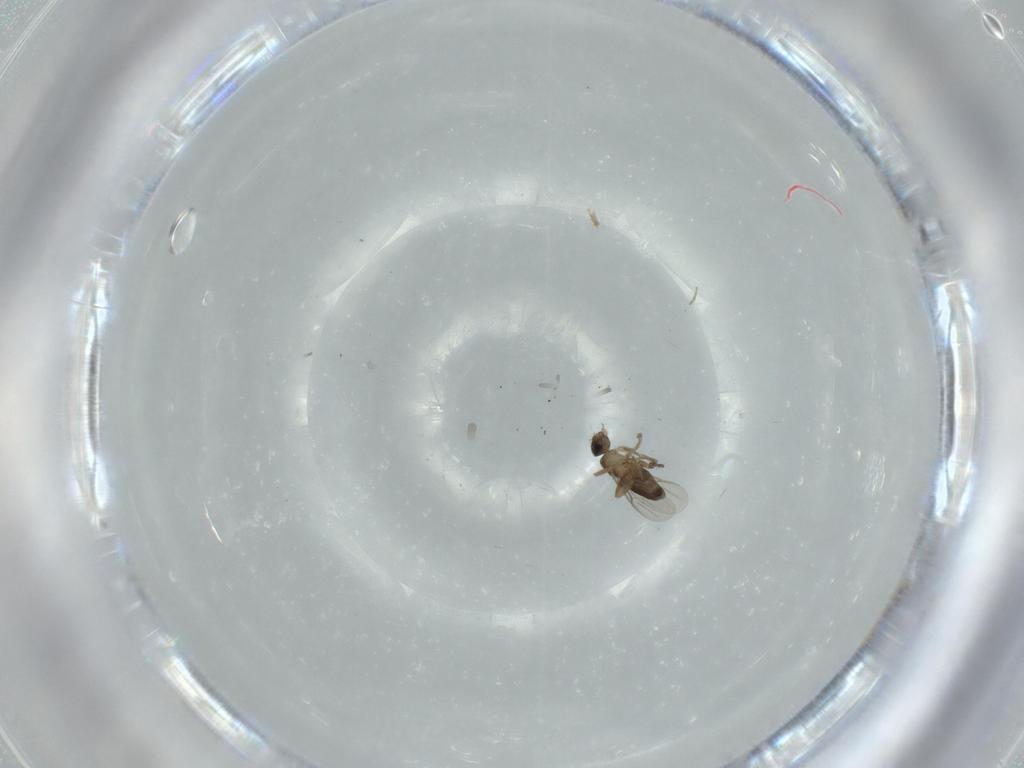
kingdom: Animalia
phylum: Arthropoda
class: Insecta
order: Diptera
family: Phoridae
